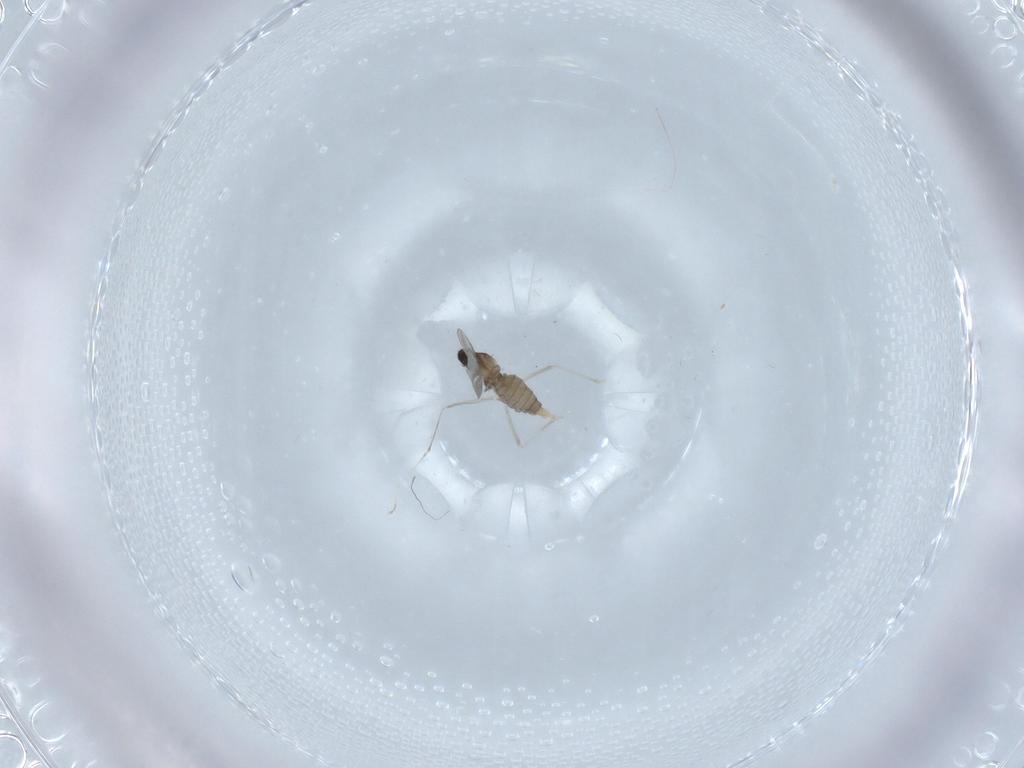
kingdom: Animalia
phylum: Arthropoda
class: Insecta
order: Diptera
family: Cecidomyiidae
